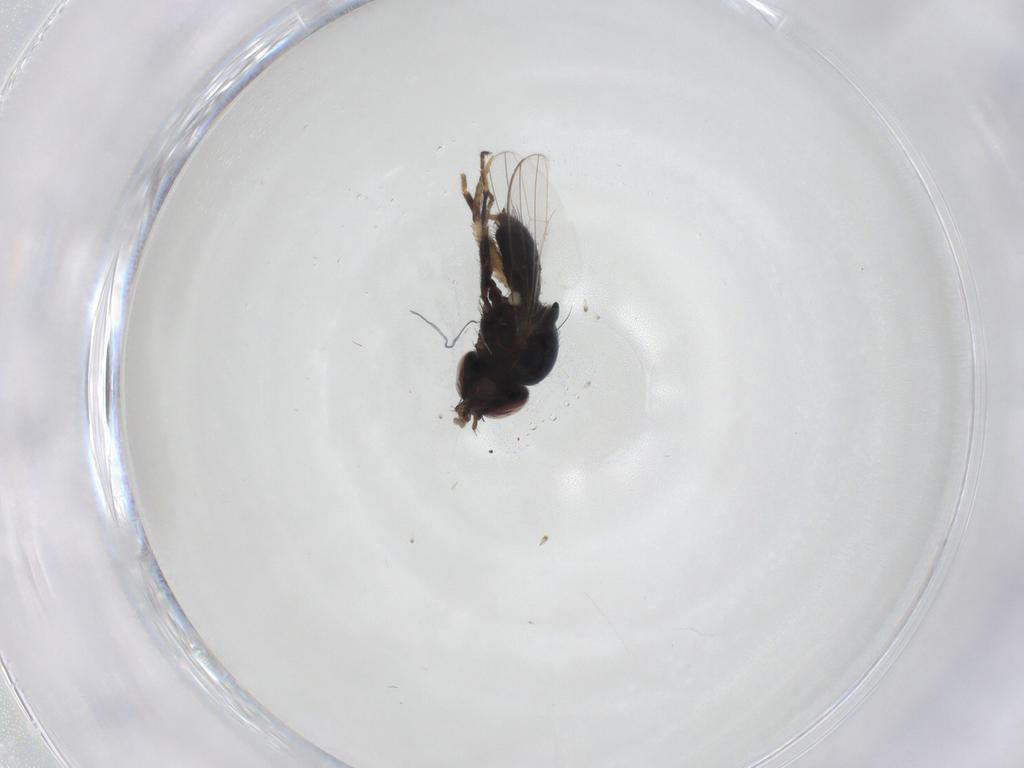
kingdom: Animalia
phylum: Arthropoda
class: Insecta
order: Diptera
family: Milichiidae
